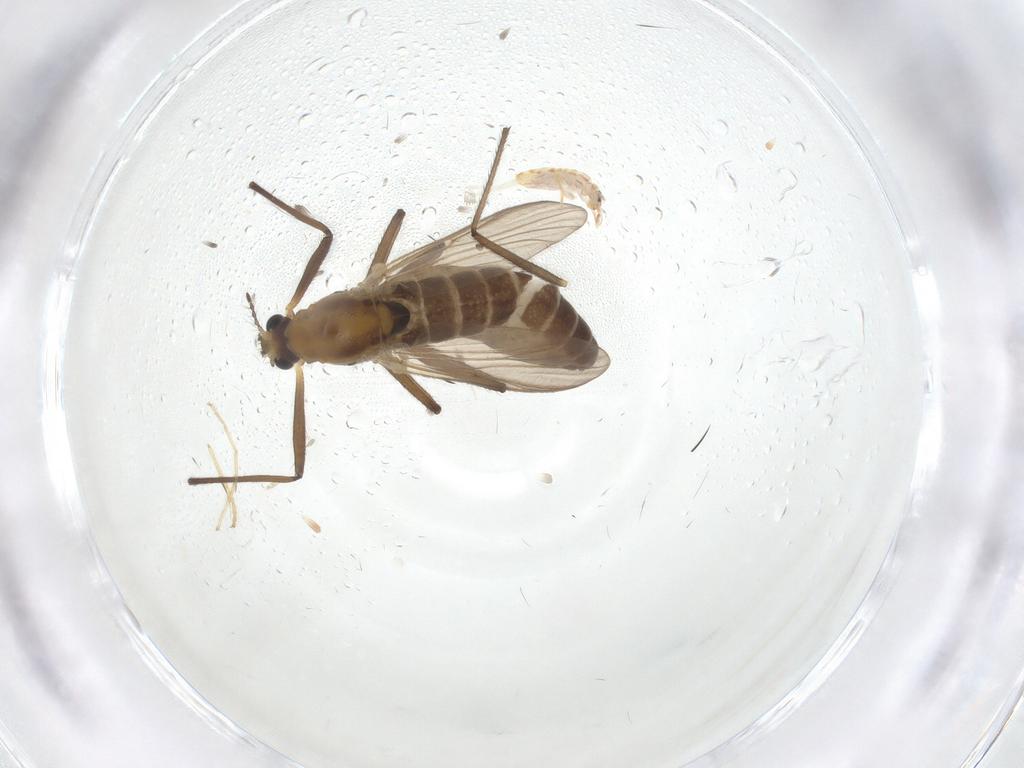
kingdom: Animalia
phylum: Arthropoda
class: Insecta
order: Diptera
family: Chironomidae
